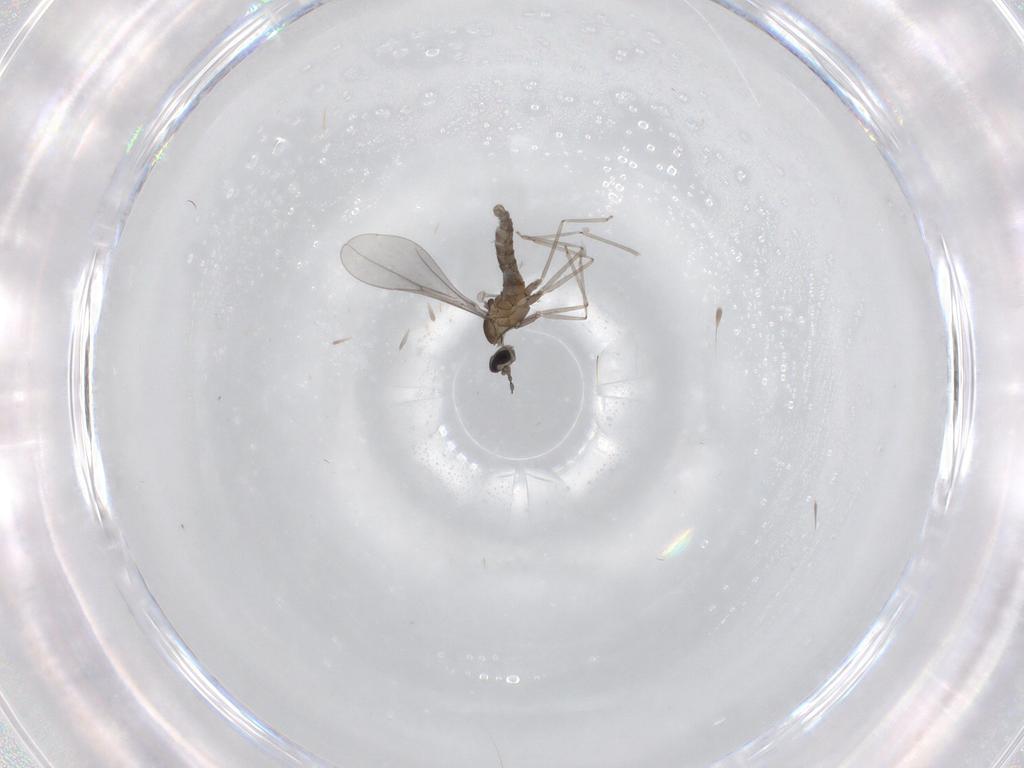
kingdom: Animalia
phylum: Arthropoda
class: Insecta
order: Diptera
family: Cecidomyiidae
